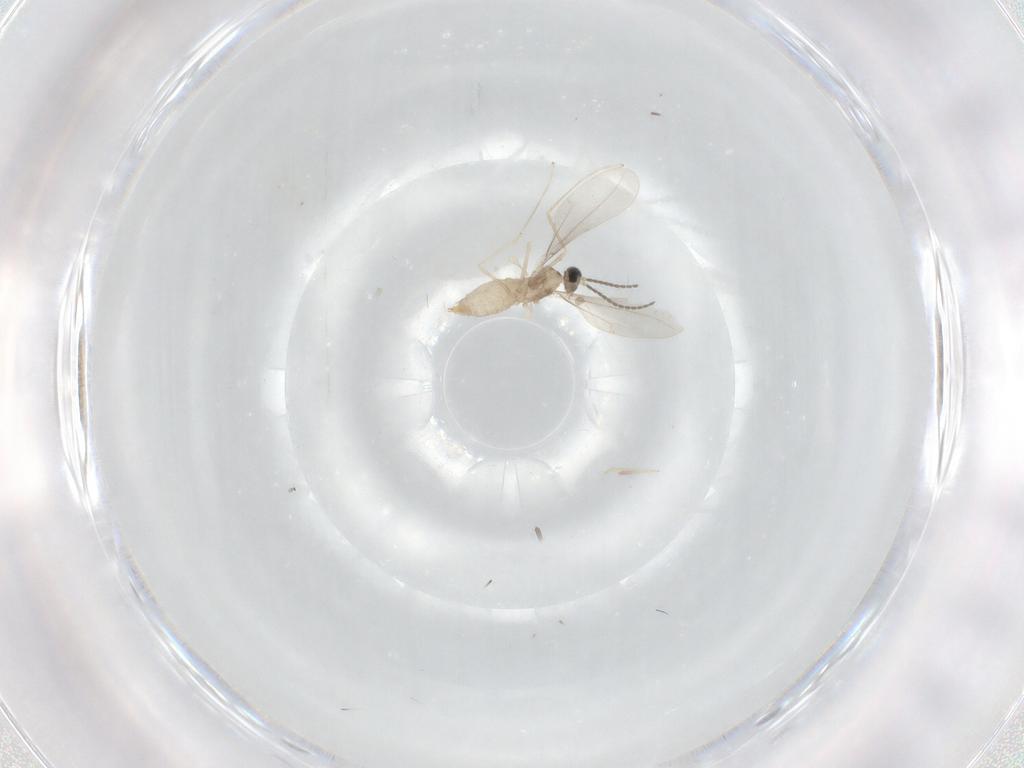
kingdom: Animalia
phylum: Arthropoda
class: Insecta
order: Diptera
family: Cecidomyiidae
